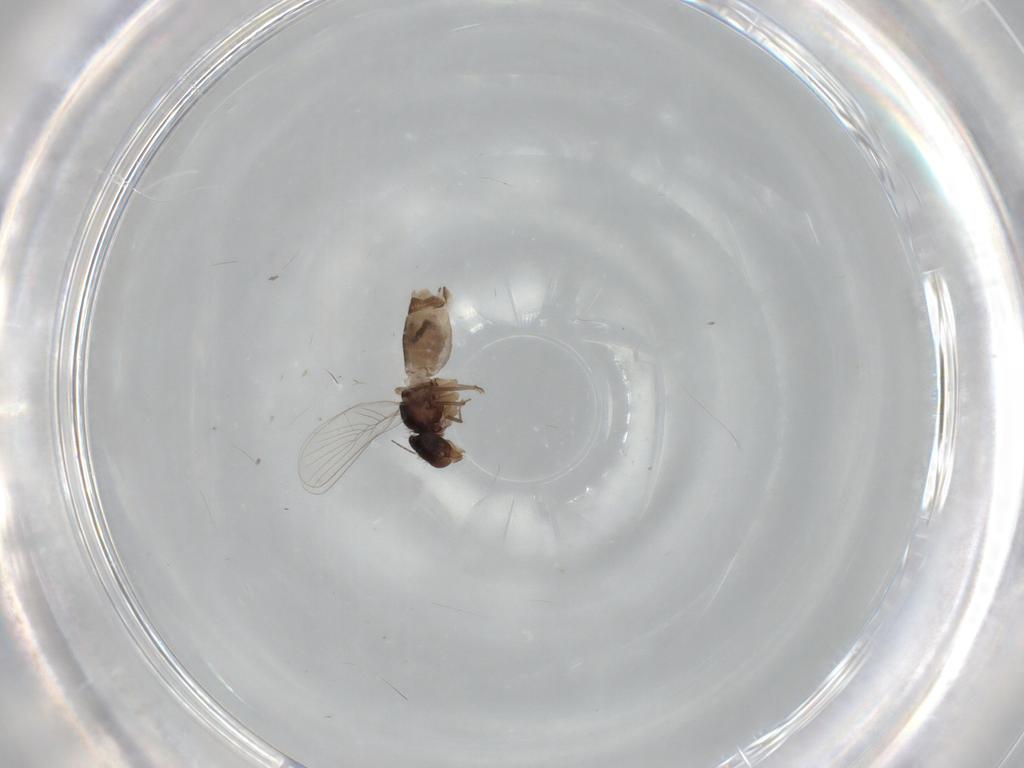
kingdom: Animalia
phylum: Arthropoda
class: Insecta
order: Psocodea
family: Psoquillidae
